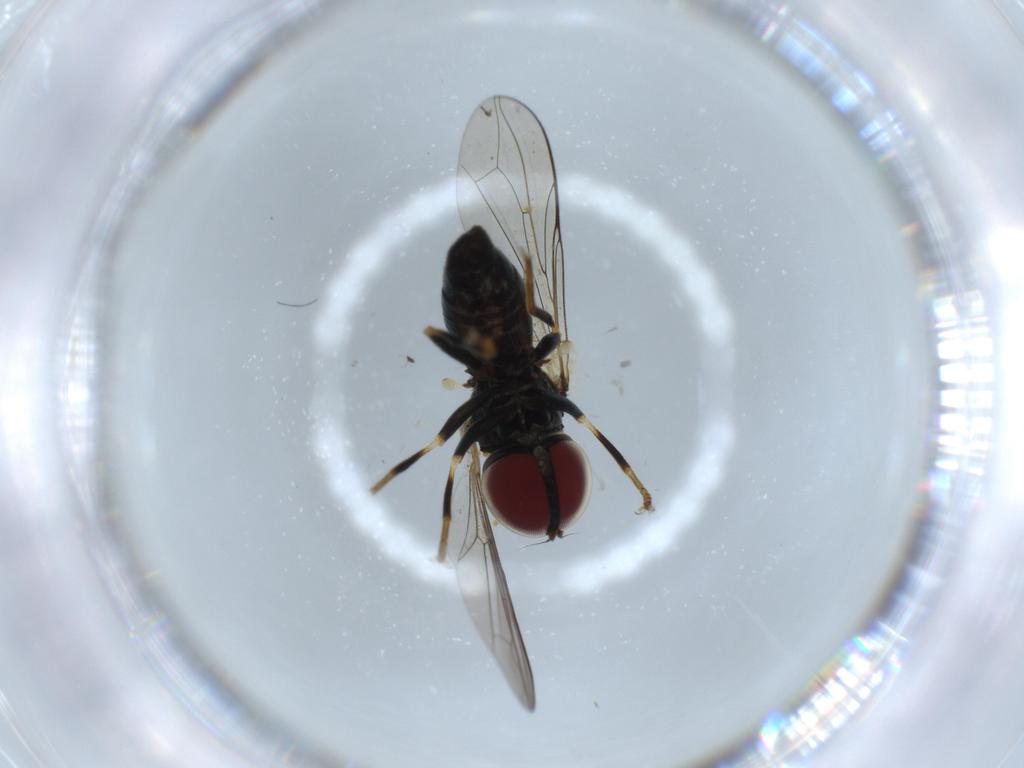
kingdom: Animalia
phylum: Arthropoda
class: Insecta
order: Diptera
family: Pipunculidae
